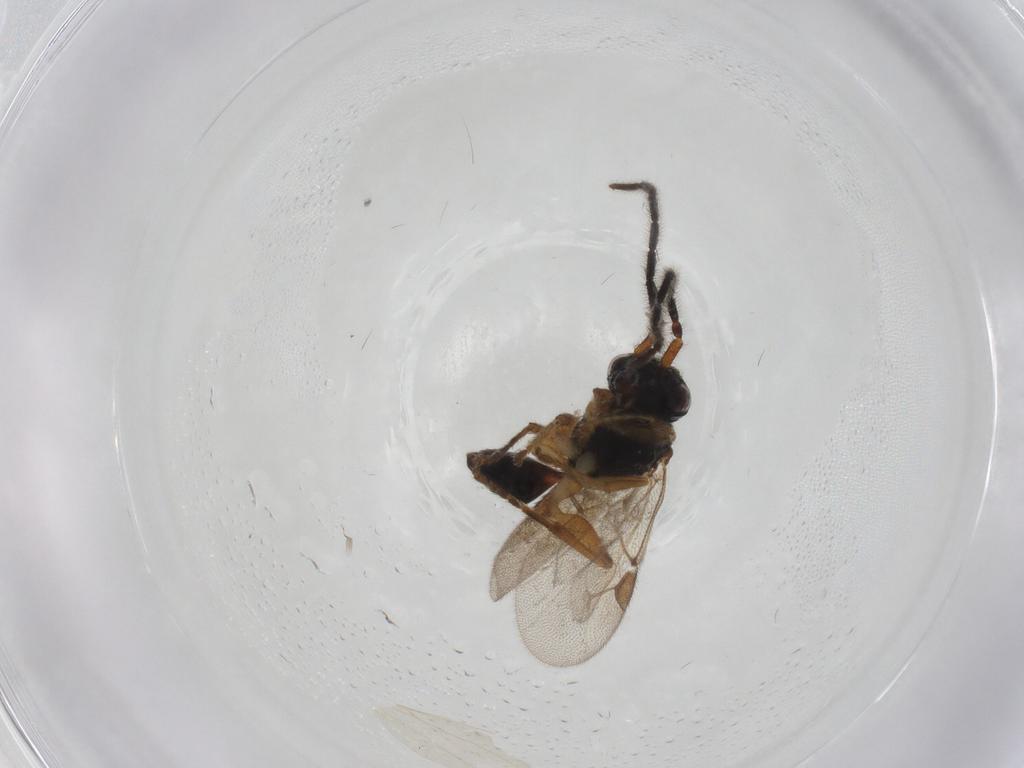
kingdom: Animalia
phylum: Arthropoda
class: Insecta
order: Hymenoptera
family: Dryinidae
